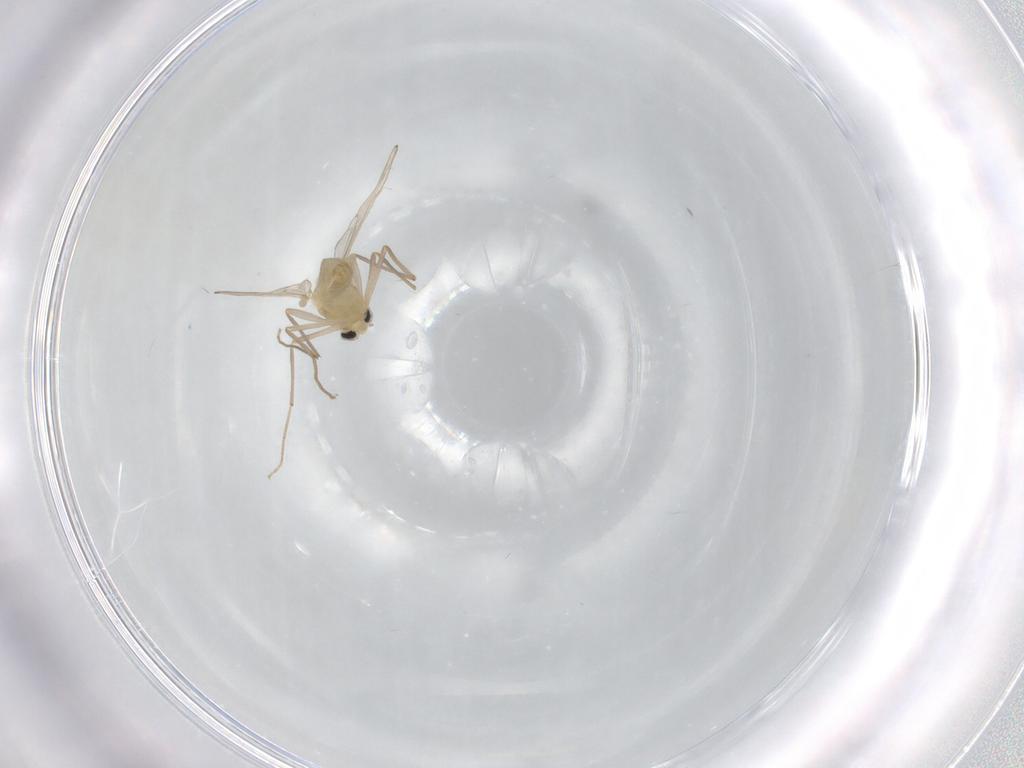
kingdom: Animalia
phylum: Arthropoda
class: Insecta
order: Diptera
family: Chironomidae
